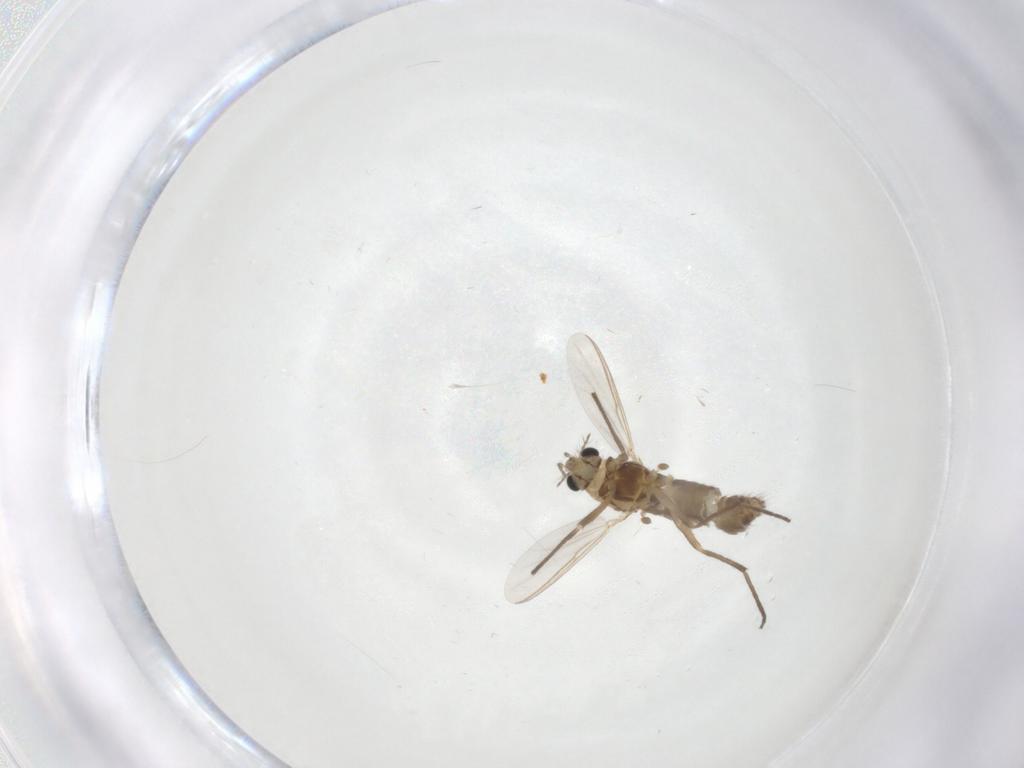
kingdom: Animalia
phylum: Arthropoda
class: Insecta
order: Diptera
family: Chironomidae
